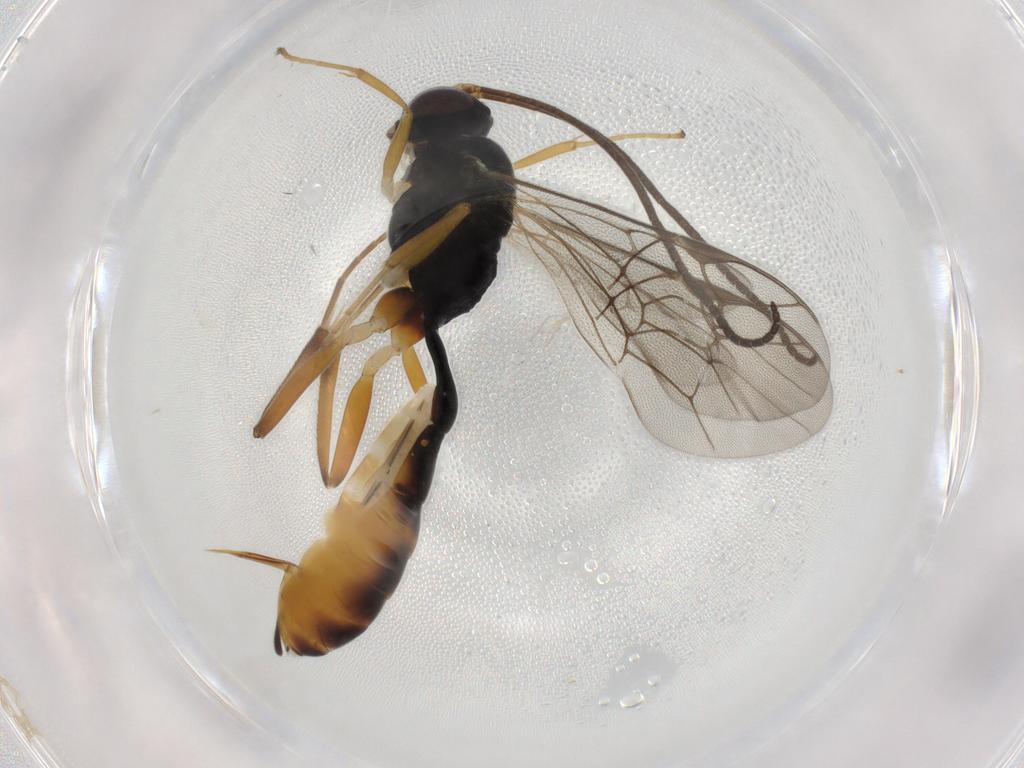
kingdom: Animalia
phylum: Arthropoda
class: Insecta
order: Hymenoptera
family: Ichneumonidae
